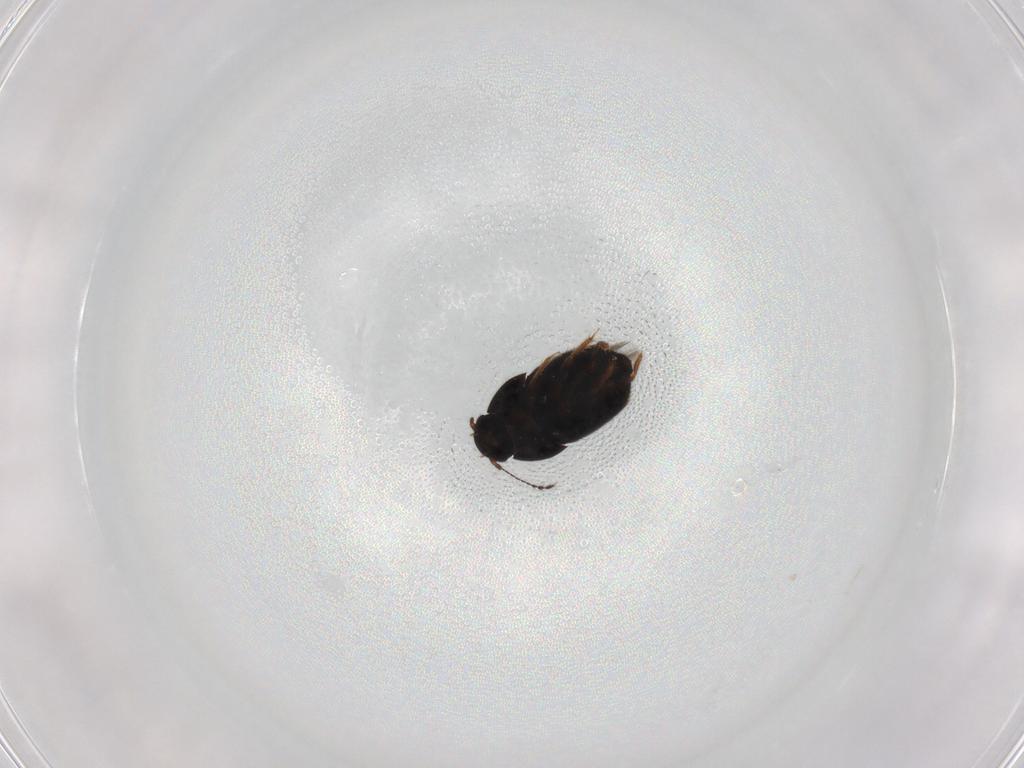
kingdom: Animalia
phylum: Arthropoda
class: Insecta
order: Coleoptera
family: Ptiliidae
